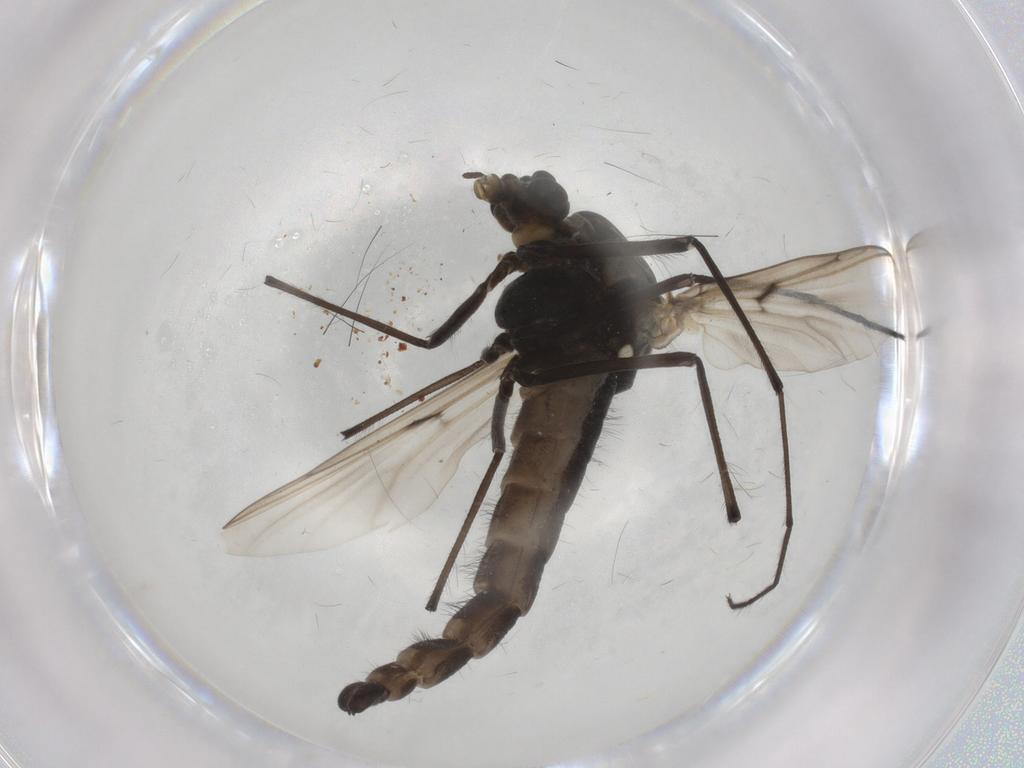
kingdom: Animalia
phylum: Arthropoda
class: Insecta
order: Diptera
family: Chironomidae
